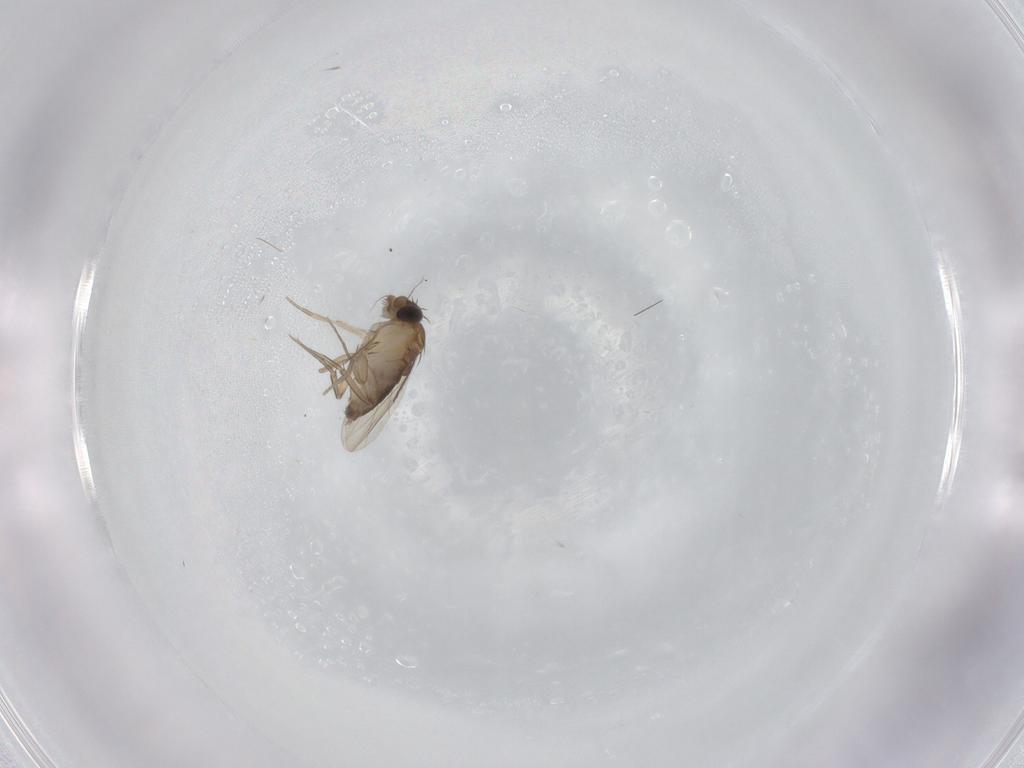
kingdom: Animalia
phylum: Arthropoda
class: Insecta
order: Diptera
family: Phoridae
